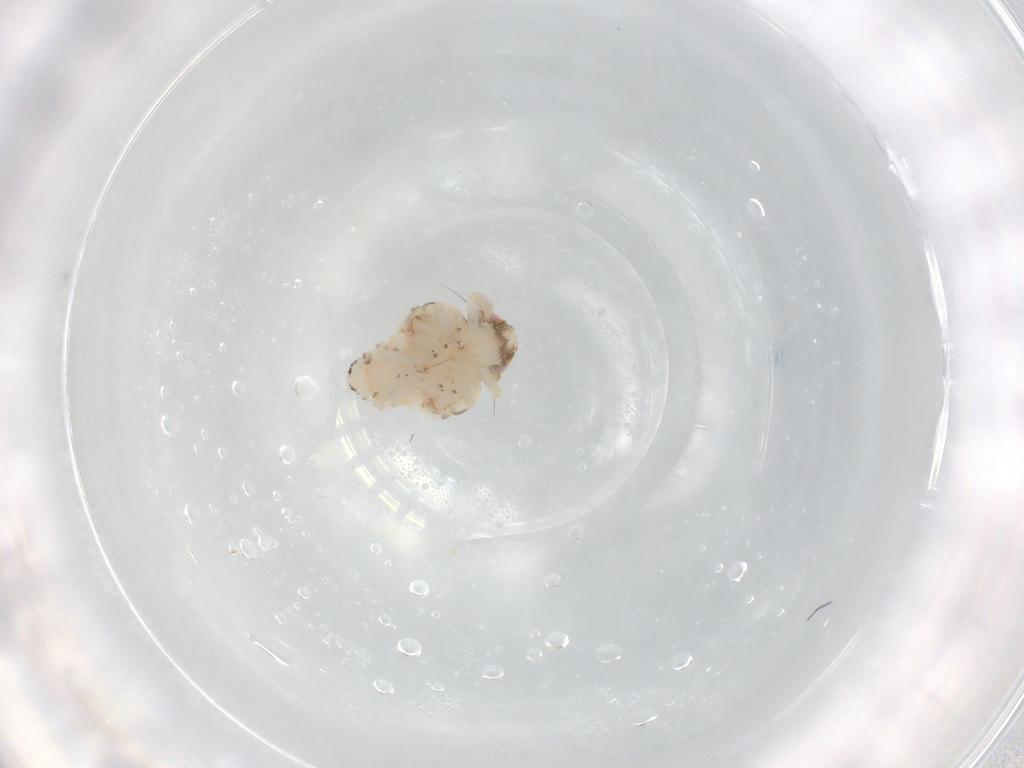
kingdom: Animalia
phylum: Arthropoda
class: Insecta
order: Hemiptera
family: Nogodinidae
